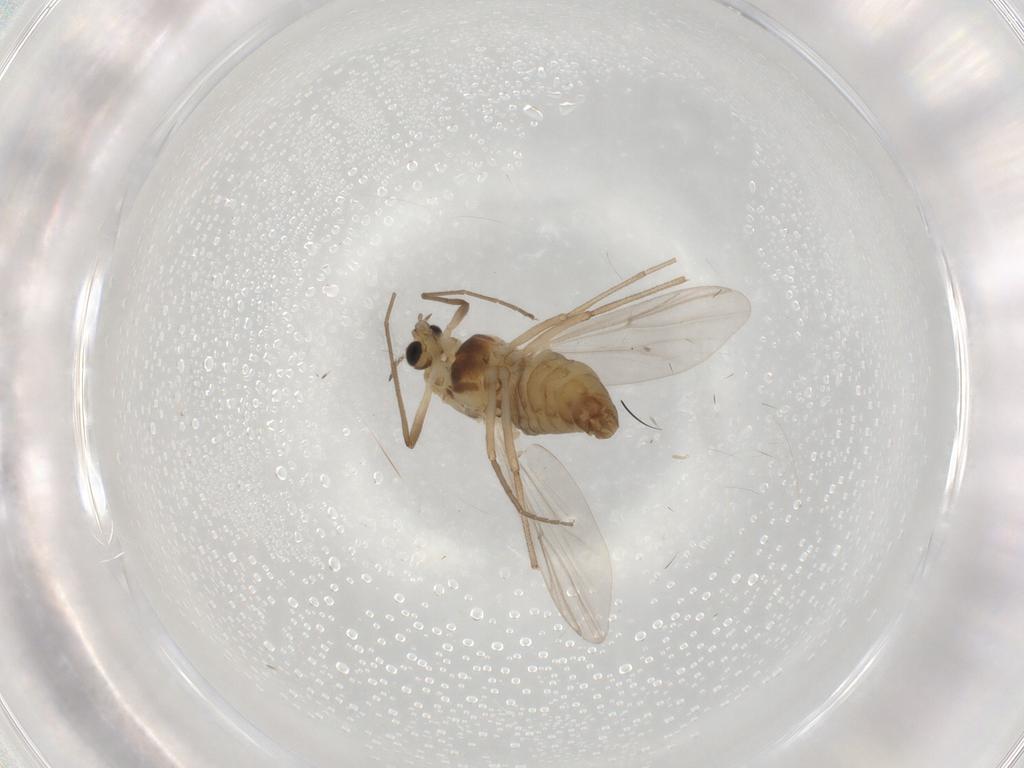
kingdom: Animalia
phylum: Arthropoda
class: Insecta
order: Diptera
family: Chironomidae
